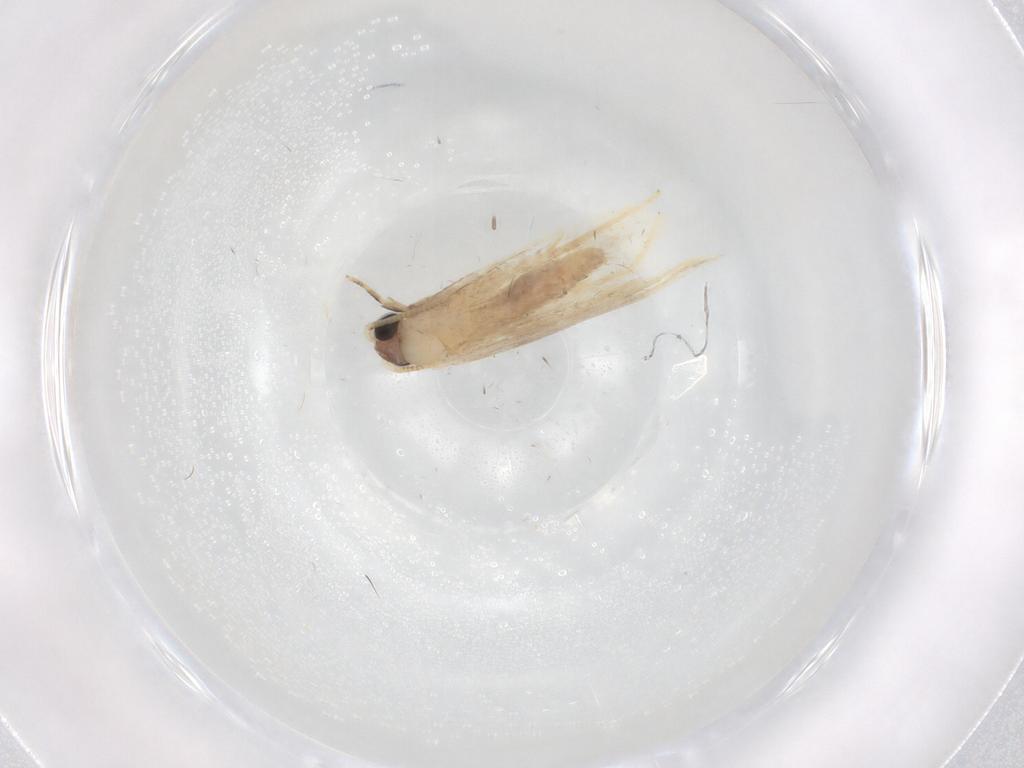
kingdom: Animalia
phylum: Arthropoda
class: Insecta
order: Lepidoptera
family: Nepticulidae
